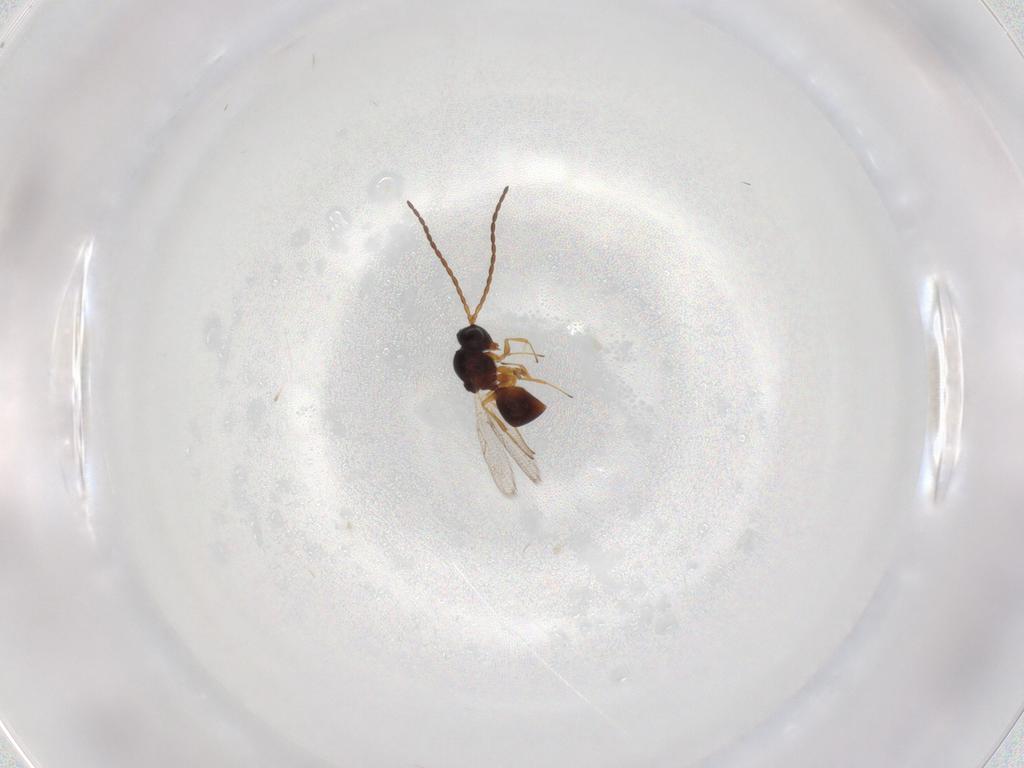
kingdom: Animalia
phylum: Arthropoda
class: Insecta
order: Hymenoptera
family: Figitidae
